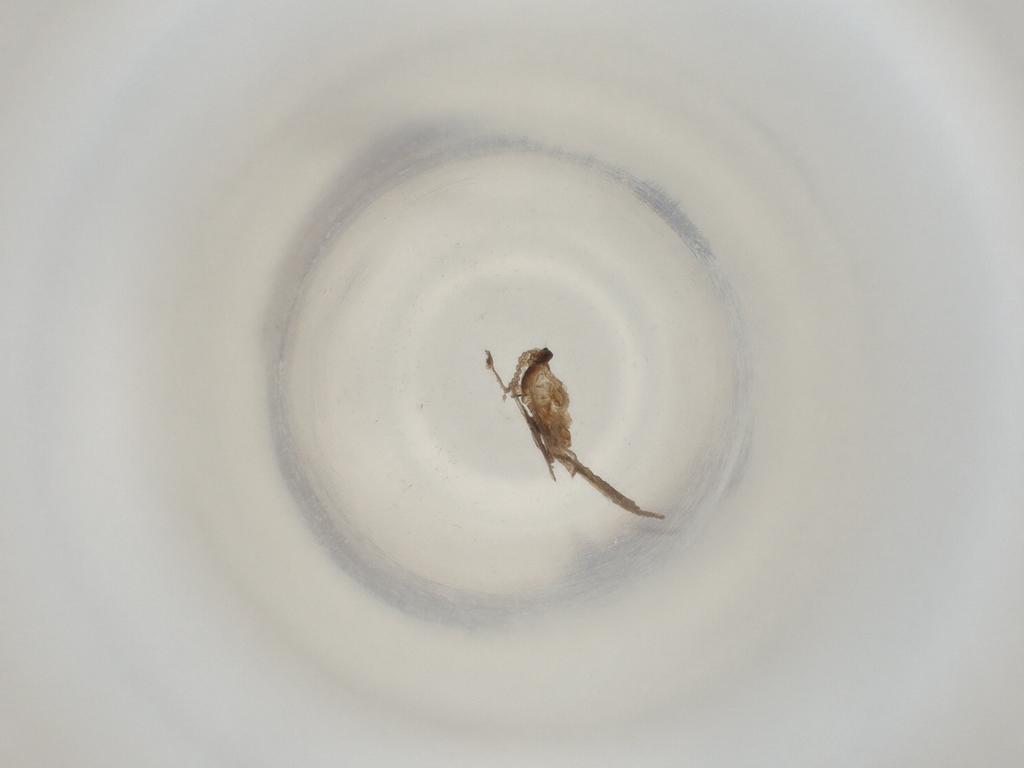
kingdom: Animalia
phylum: Arthropoda
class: Insecta
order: Diptera
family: Cecidomyiidae
